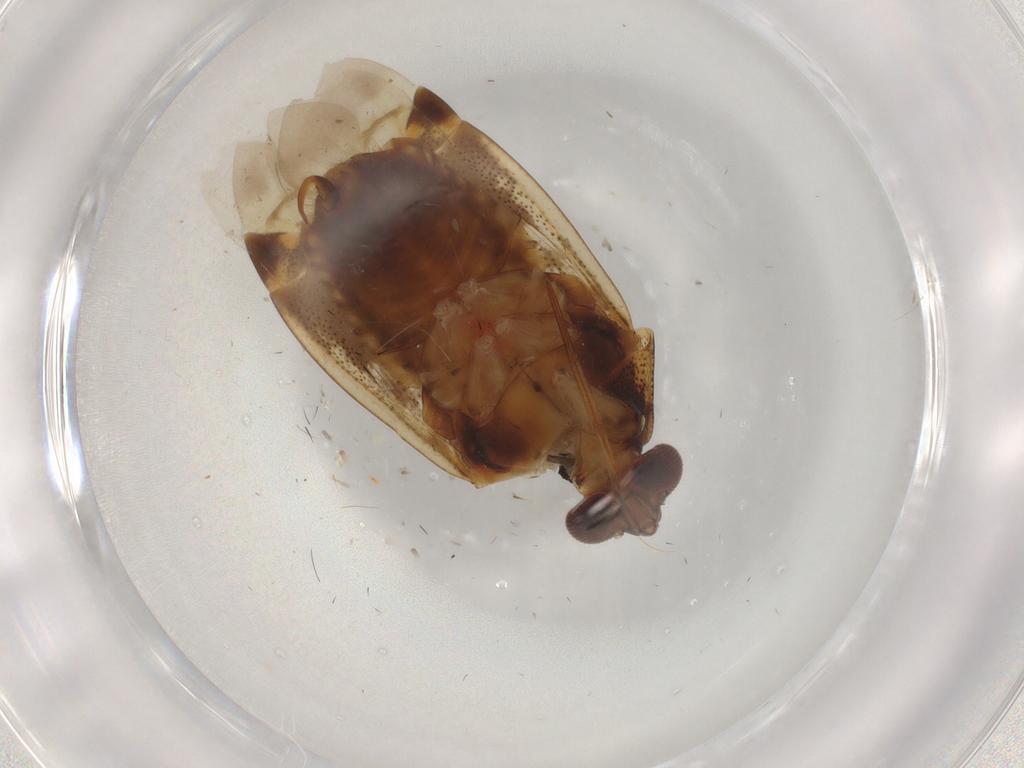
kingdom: Animalia
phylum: Arthropoda
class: Insecta
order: Hemiptera
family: Miridae
